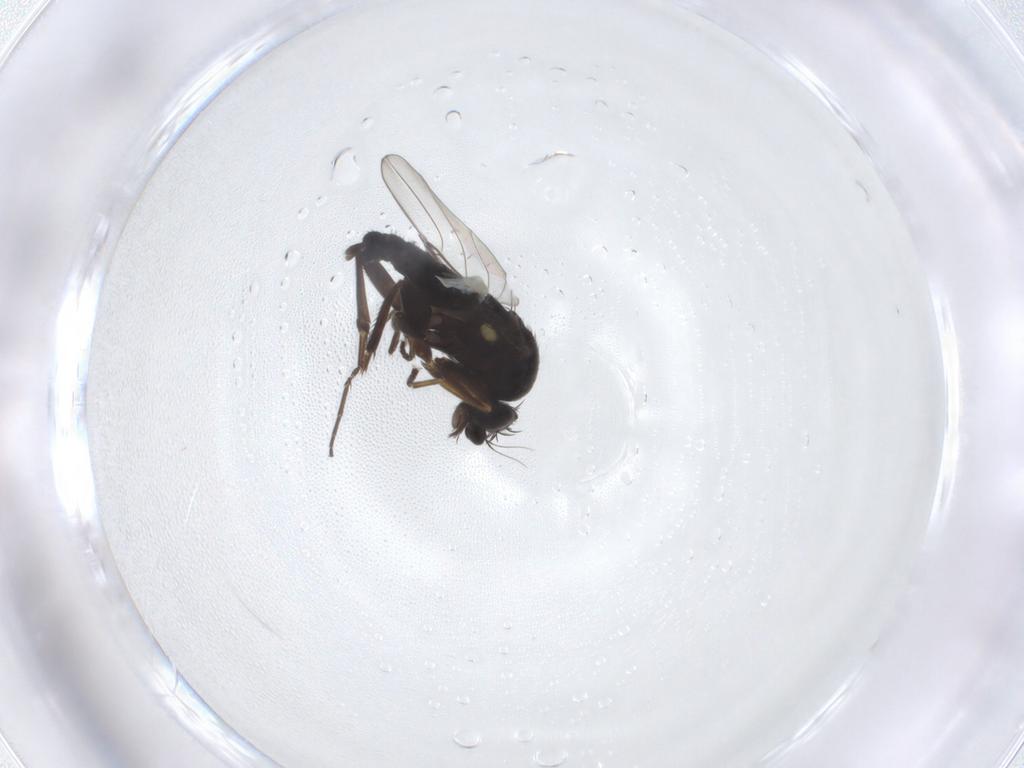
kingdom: Animalia
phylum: Arthropoda
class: Insecta
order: Diptera
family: Phoridae
